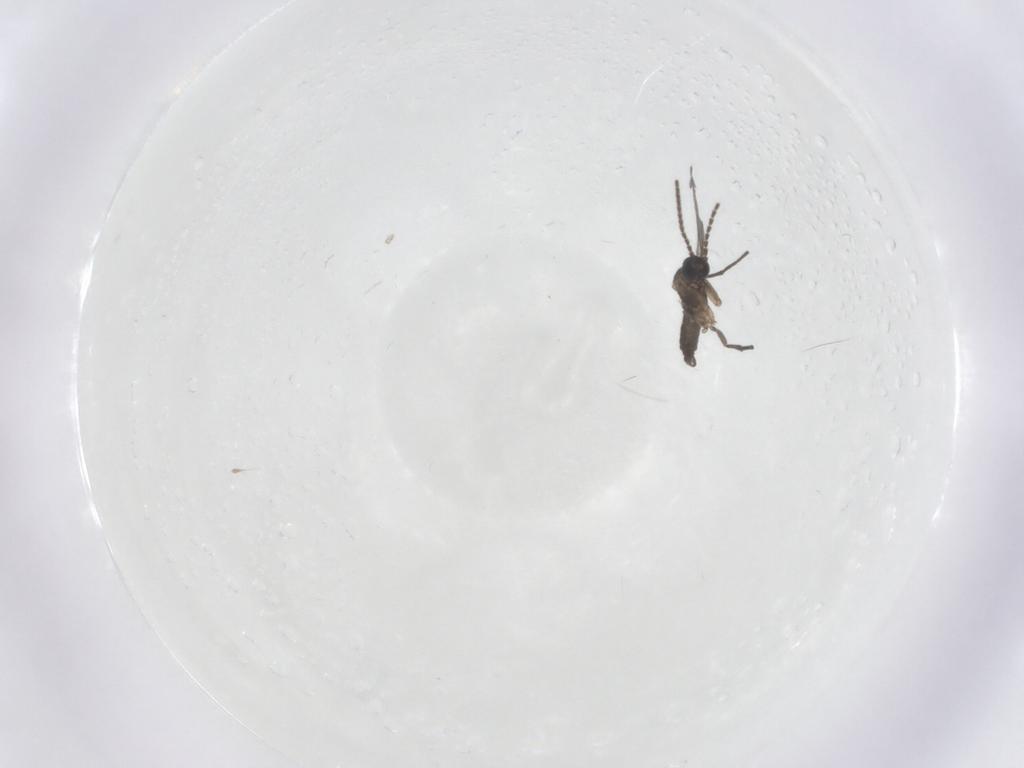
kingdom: Animalia
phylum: Arthropoda
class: Insecta
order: Diptera
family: Sciaridae
